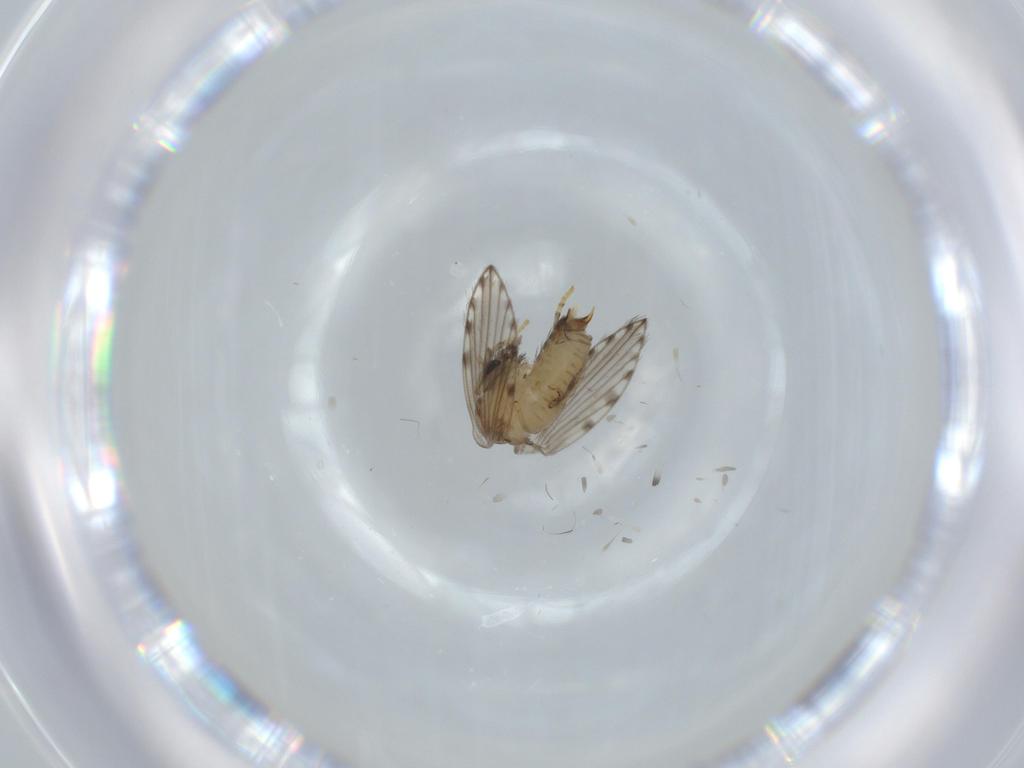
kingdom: Animalia
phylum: Arthropoda
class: Insecta
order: Diptera
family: Psychodidae
